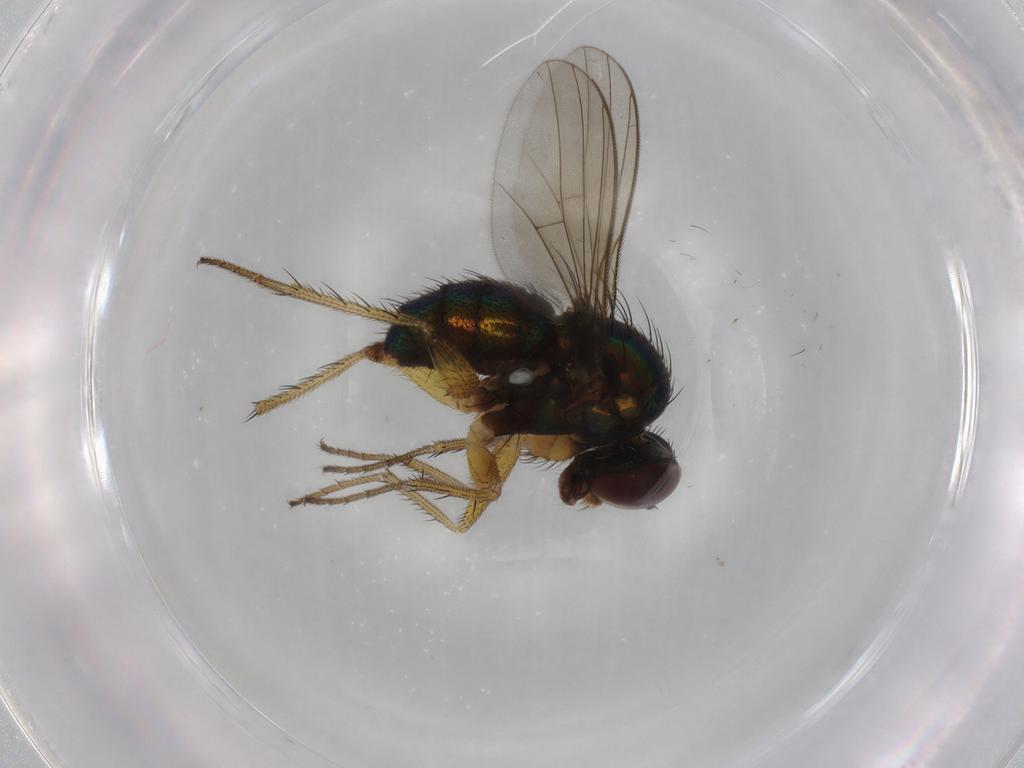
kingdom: Animalia
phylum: Arthropoda
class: Insecta
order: Diptera
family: Dolichopodidae
